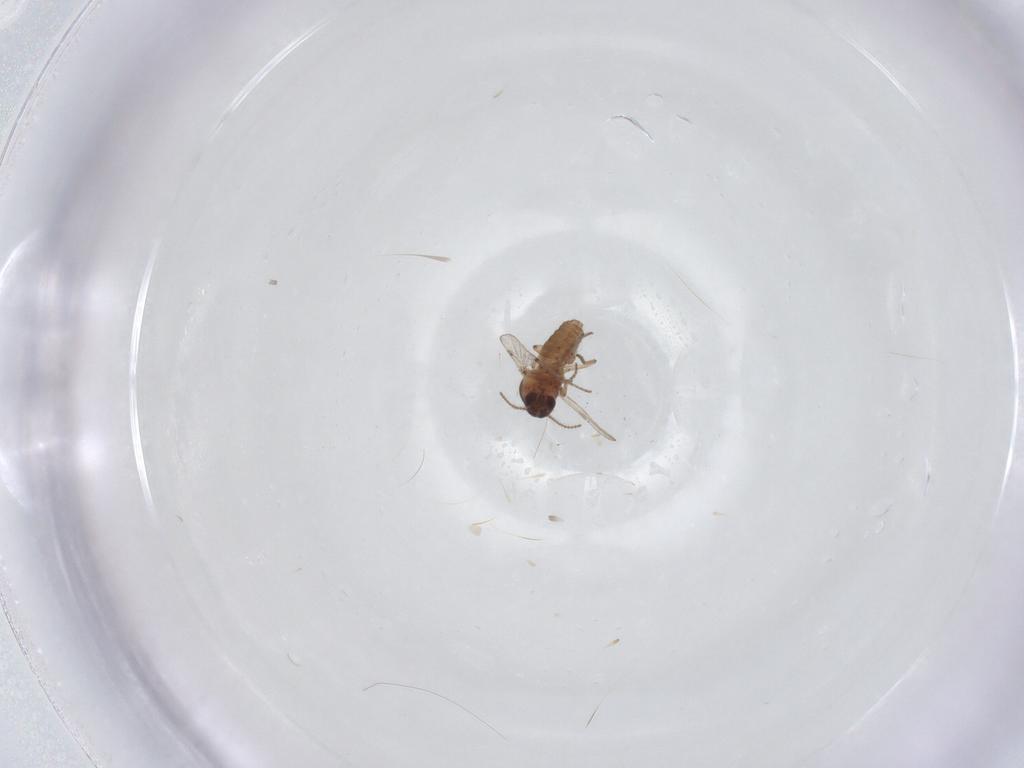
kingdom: Animalia
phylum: Arthropoda
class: Insecta
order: Diptera
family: Ceratopogonidae
